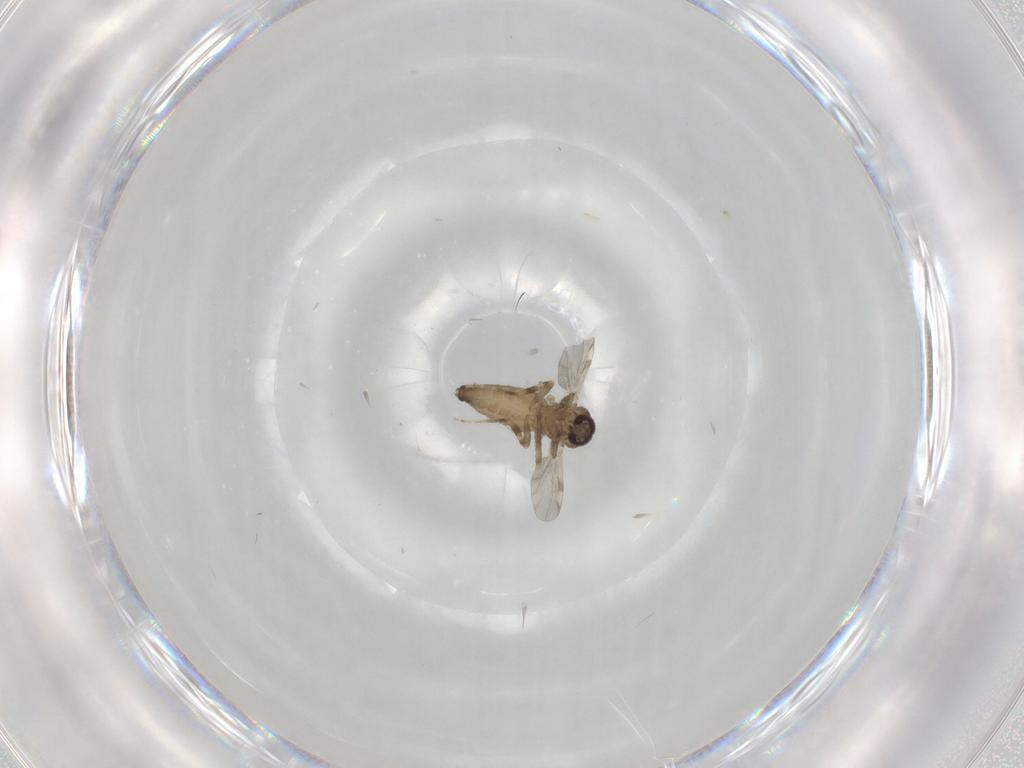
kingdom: Animalia
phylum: Arthropoda
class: Insecta
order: Diptera
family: Ceratopogonidae
